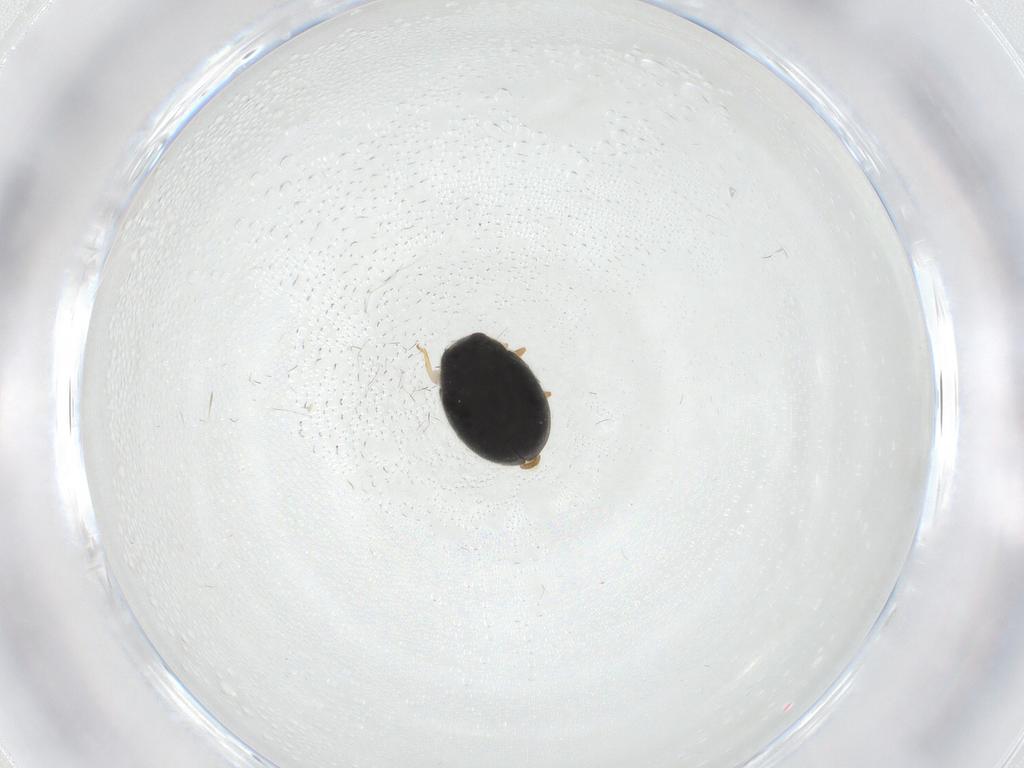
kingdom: Animalia
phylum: Arthropoda
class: Insecta
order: Coleoptera
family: Coccinellidae
